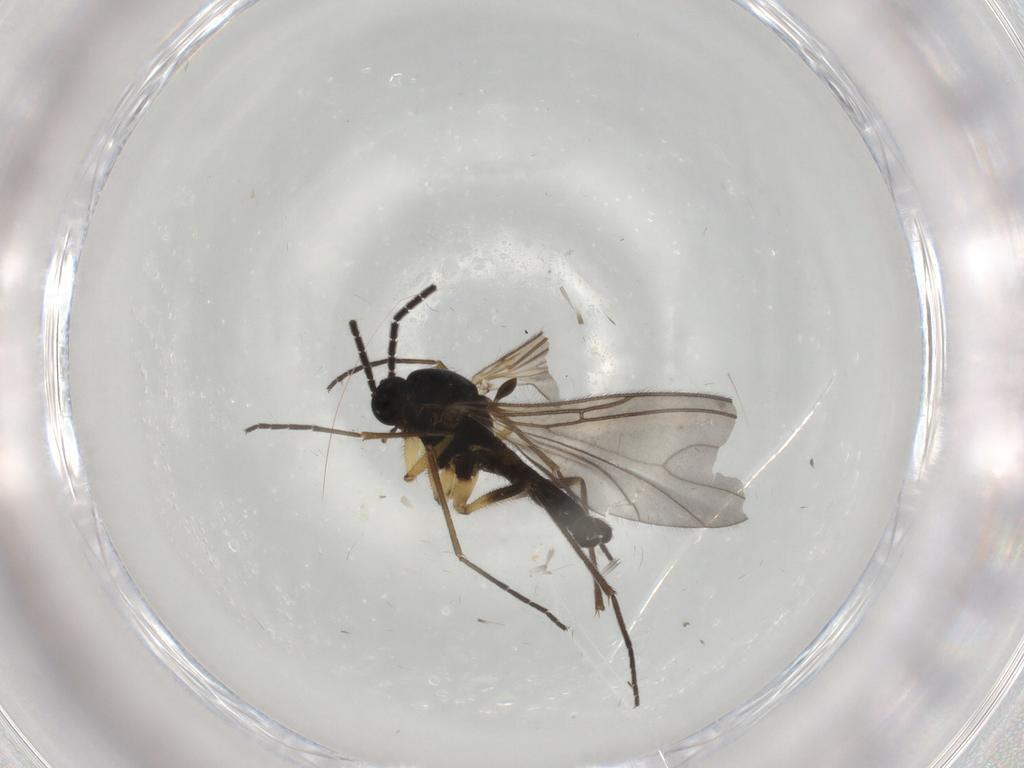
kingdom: Animalia
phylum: Arthropoda
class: Insecta
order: Diptera
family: Sciaridae
